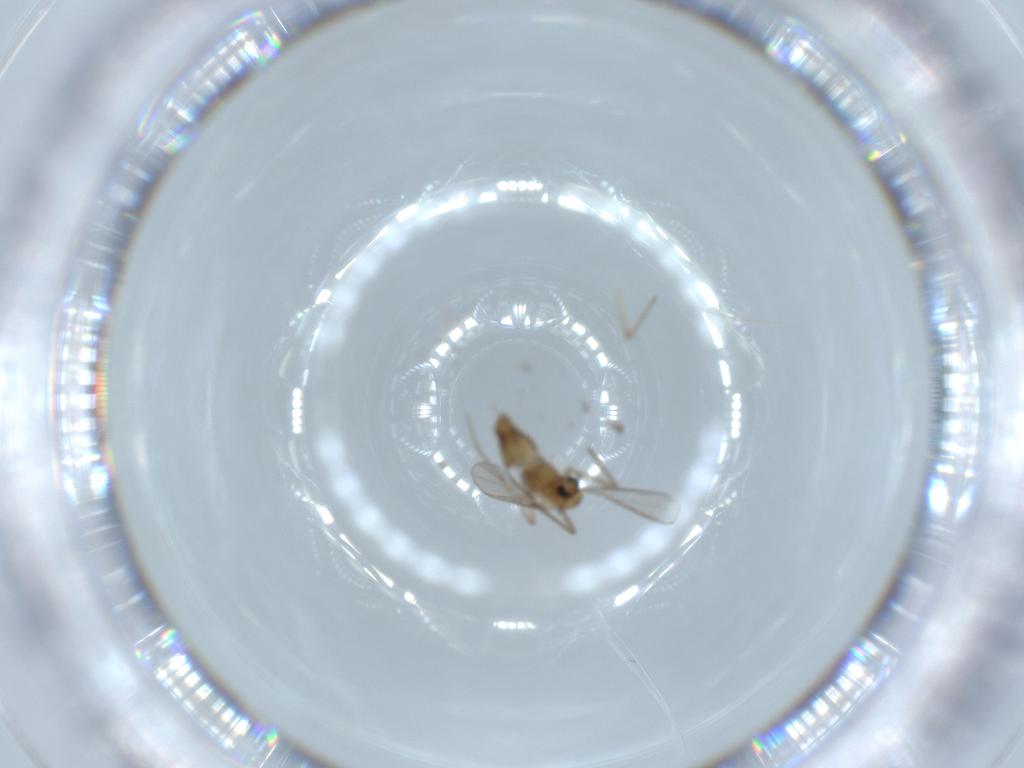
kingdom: Animalia
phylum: Arthropoda
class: Insecta
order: Diptera
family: Chironomidae
